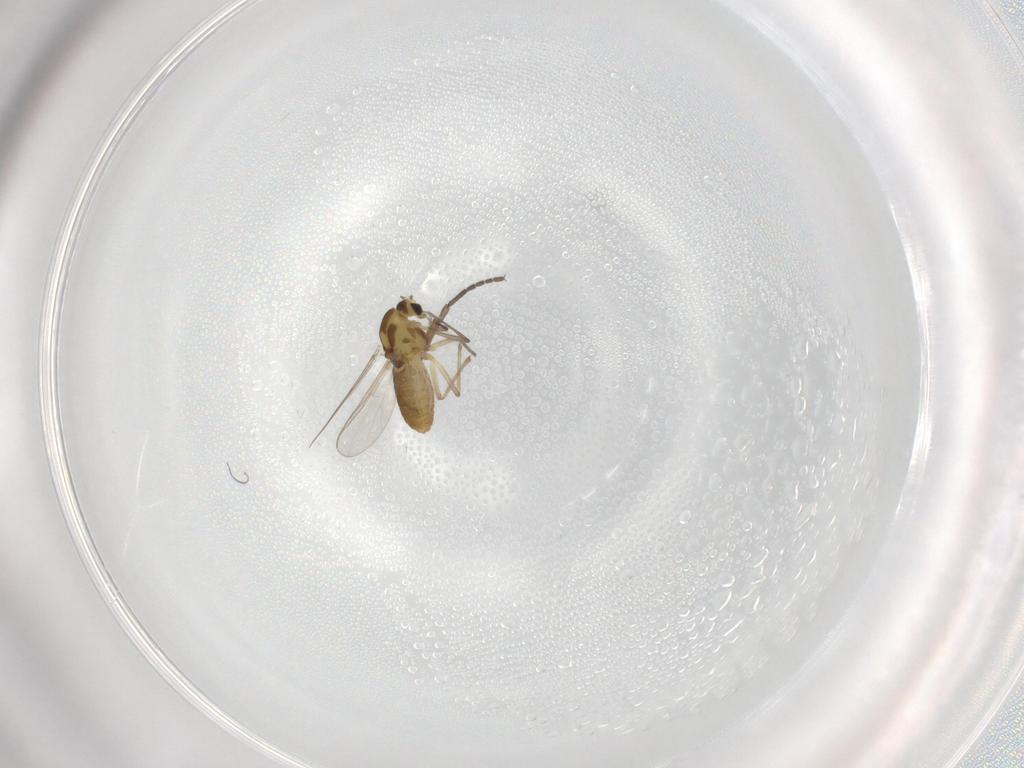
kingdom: Animalia
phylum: Arthropoda
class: Insecta
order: Diptera
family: Chironomidae
